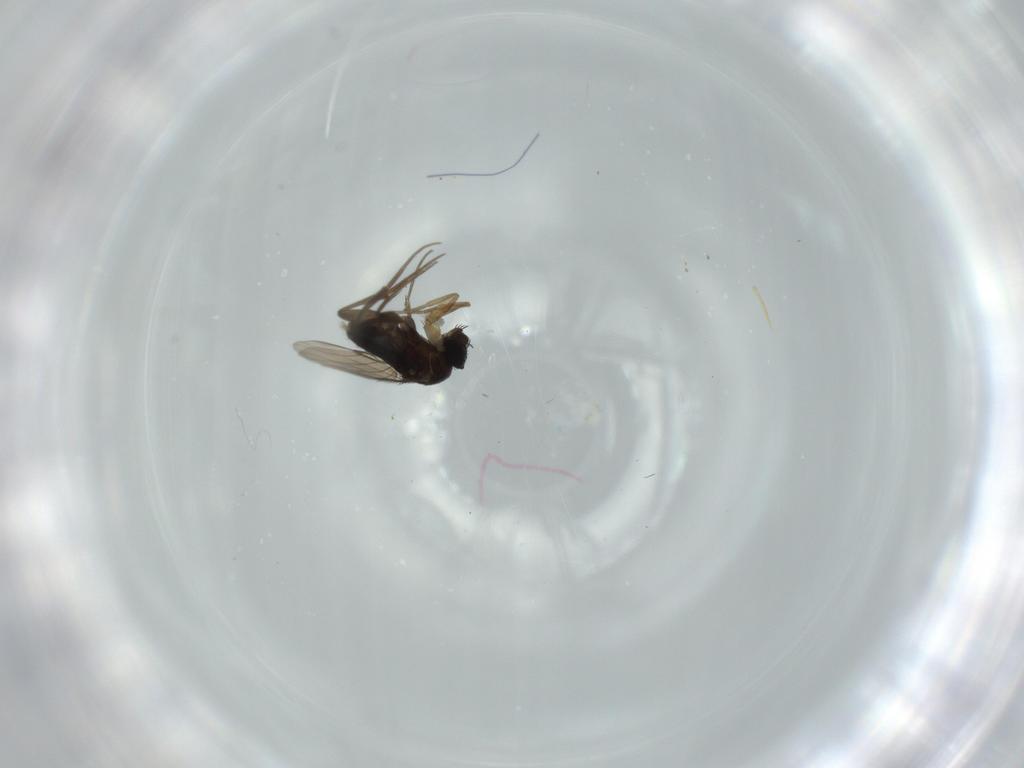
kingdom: Animalia
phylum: Arthropoda
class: Insecta
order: Diptera
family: Phoridae
